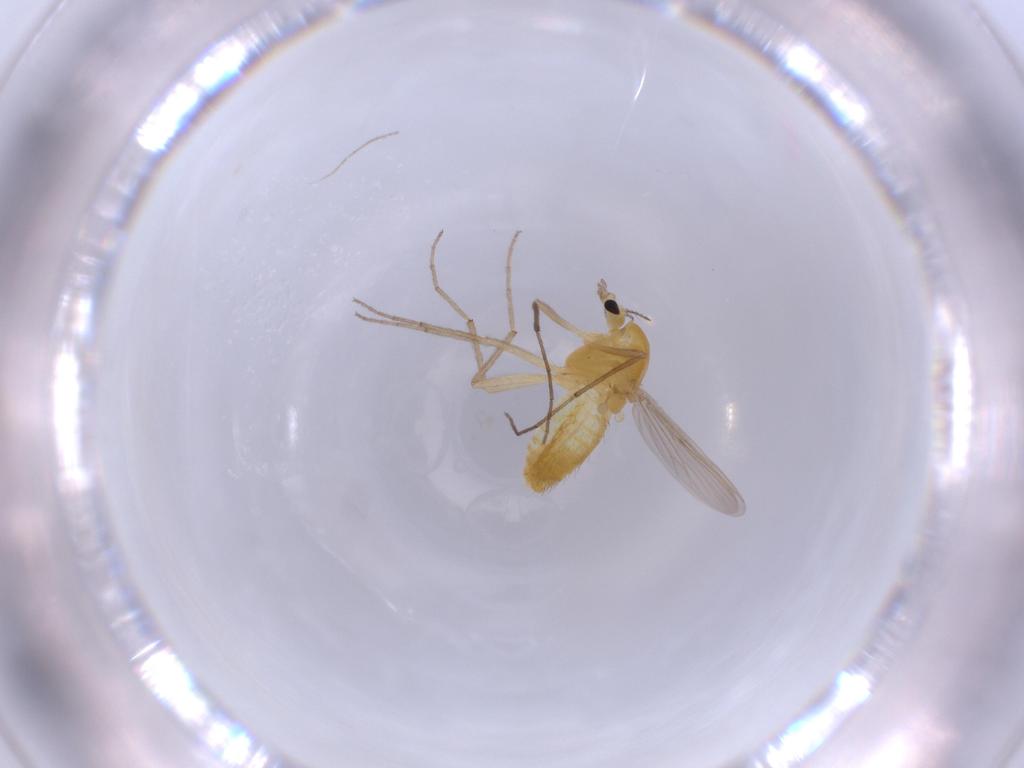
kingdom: Animalia
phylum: Arthropoda
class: Insecta
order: Diptera
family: Chironomidae
